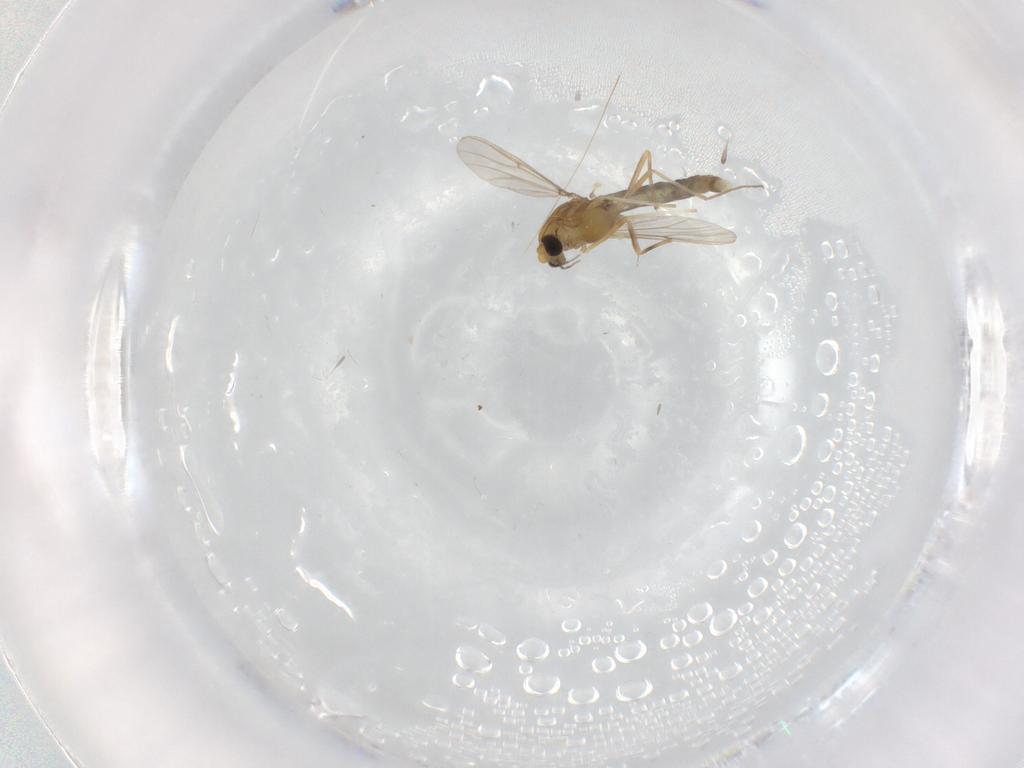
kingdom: Animalia
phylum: Arthropoda
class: Insecta
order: Diptera
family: Chironomidae
